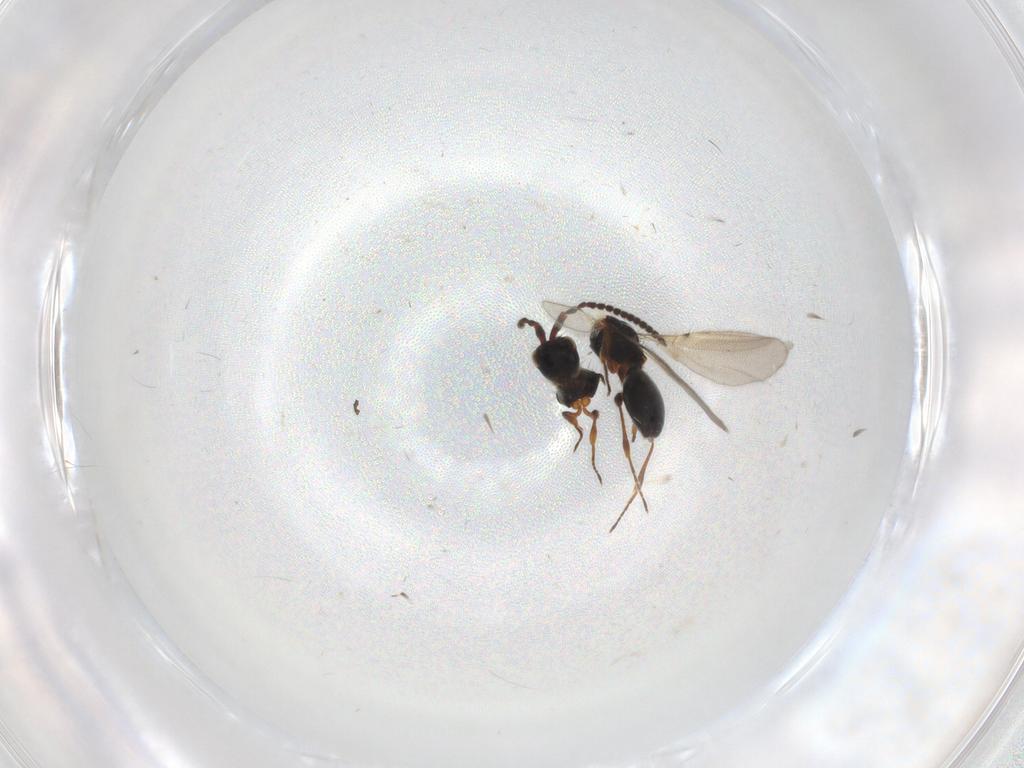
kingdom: Animalia
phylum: Arthropoda
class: Insecta
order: Hymenoptera
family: Diapriidae
